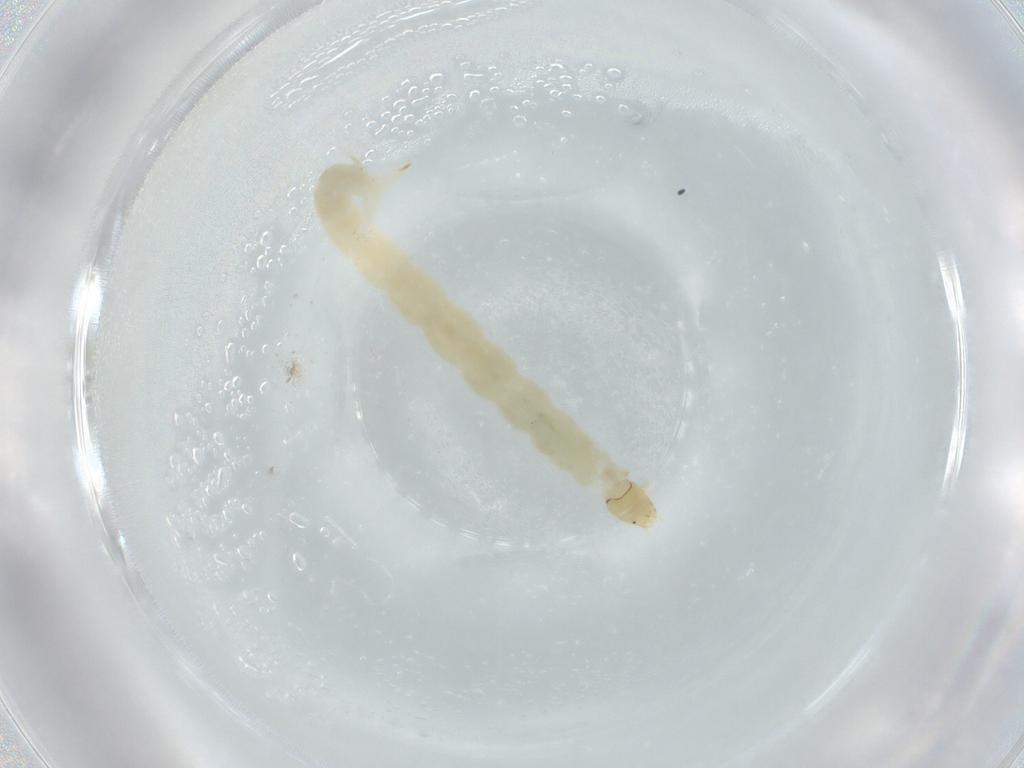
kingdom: Animalia
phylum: Arthropoda
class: Insecta
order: Diptera
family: Chironomidae
